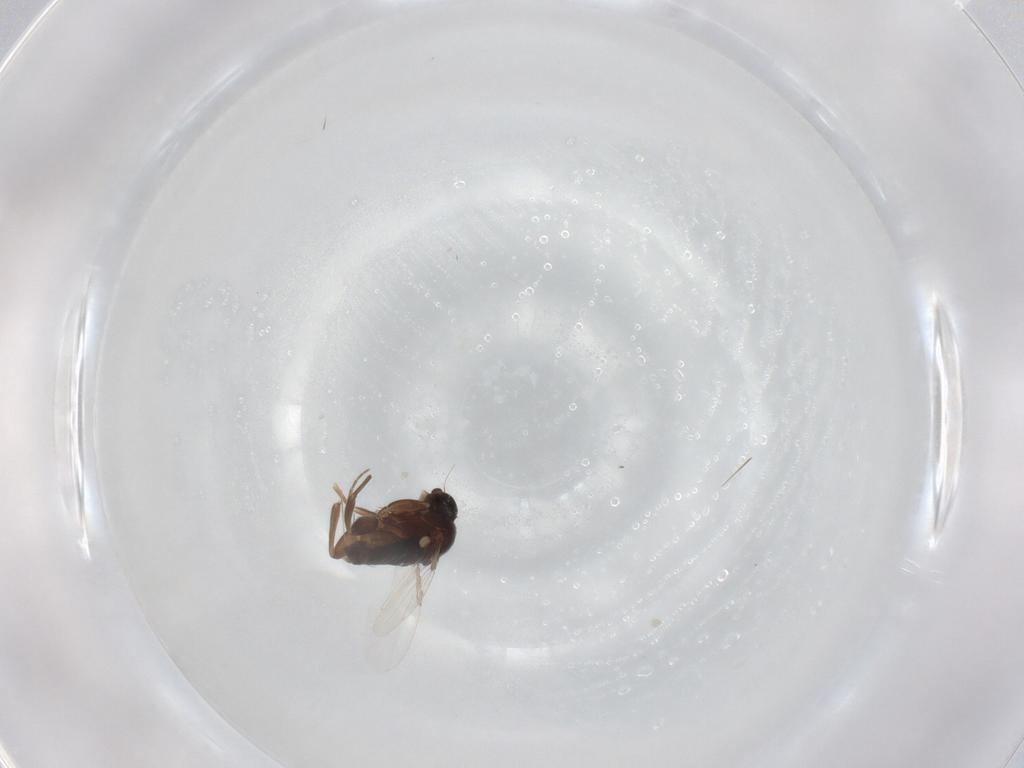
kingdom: Animalia
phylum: Arthropoda
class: Insecta
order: Diptera
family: Phoridae
